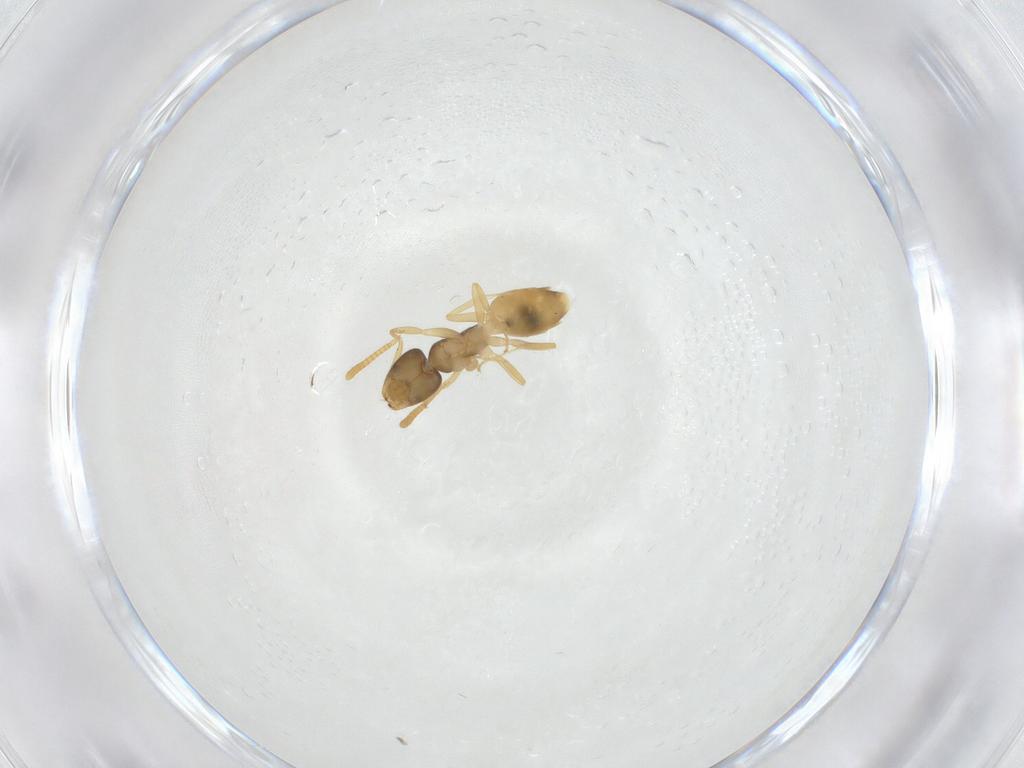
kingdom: Animalia
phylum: Arthropoda
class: Insecta
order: Hymenoptera
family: Formicidae
